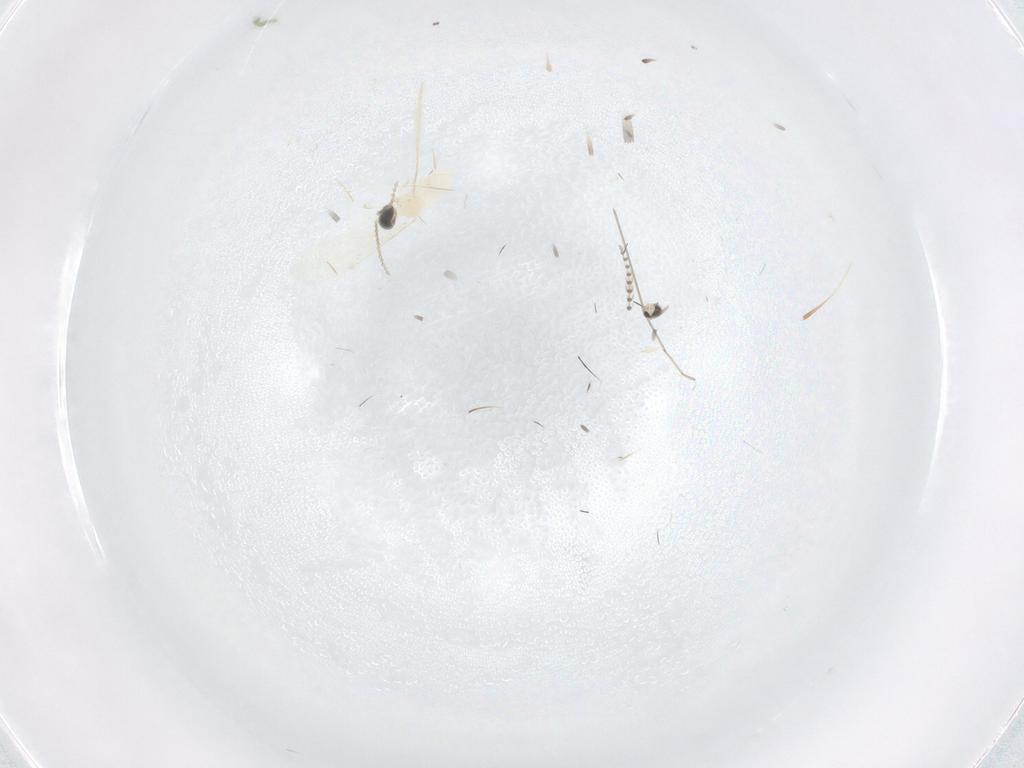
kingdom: Animalia
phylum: Arthropoda
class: Insecta
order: Diptera
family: Cecidomyiidae
